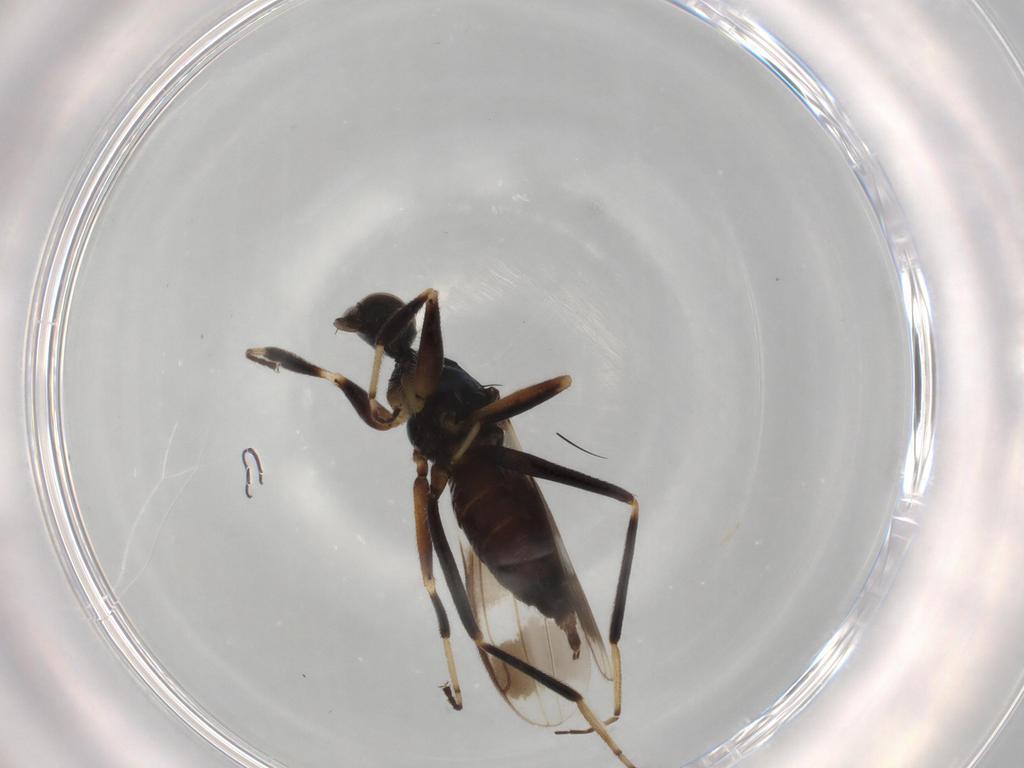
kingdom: Animalia
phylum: Arthropoda
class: Insecta
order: Diptera
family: Hybotidae
